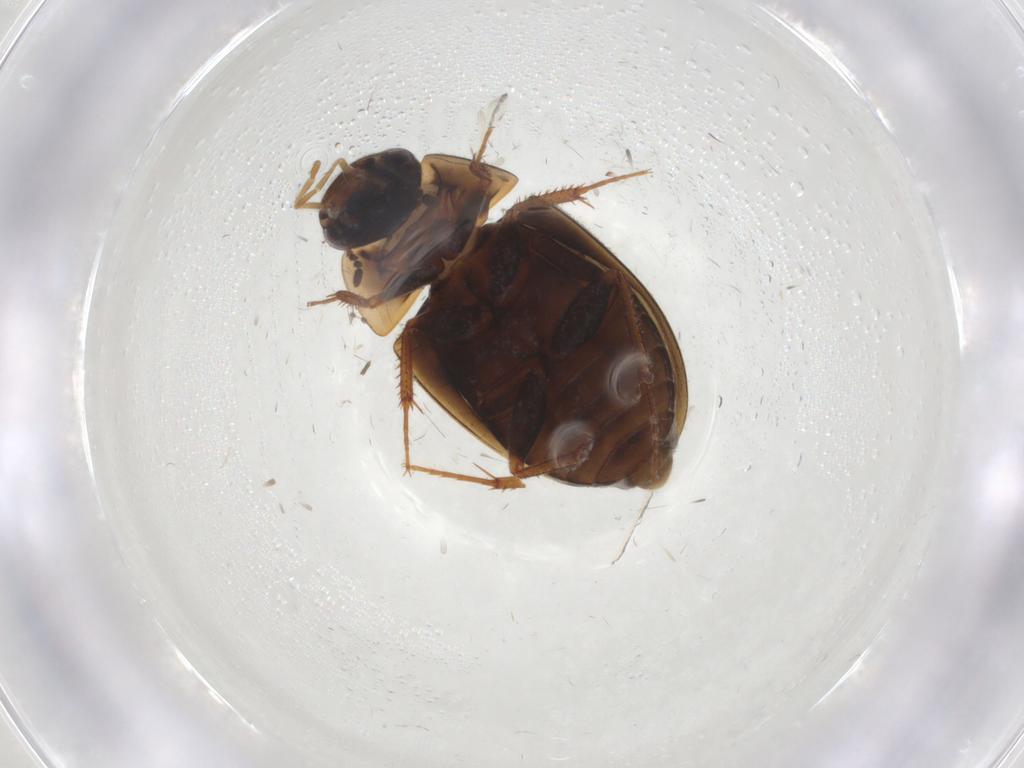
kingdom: Animalia
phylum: Arthropoda
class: Insecta
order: Coleoptera
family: Hydrophilidae
